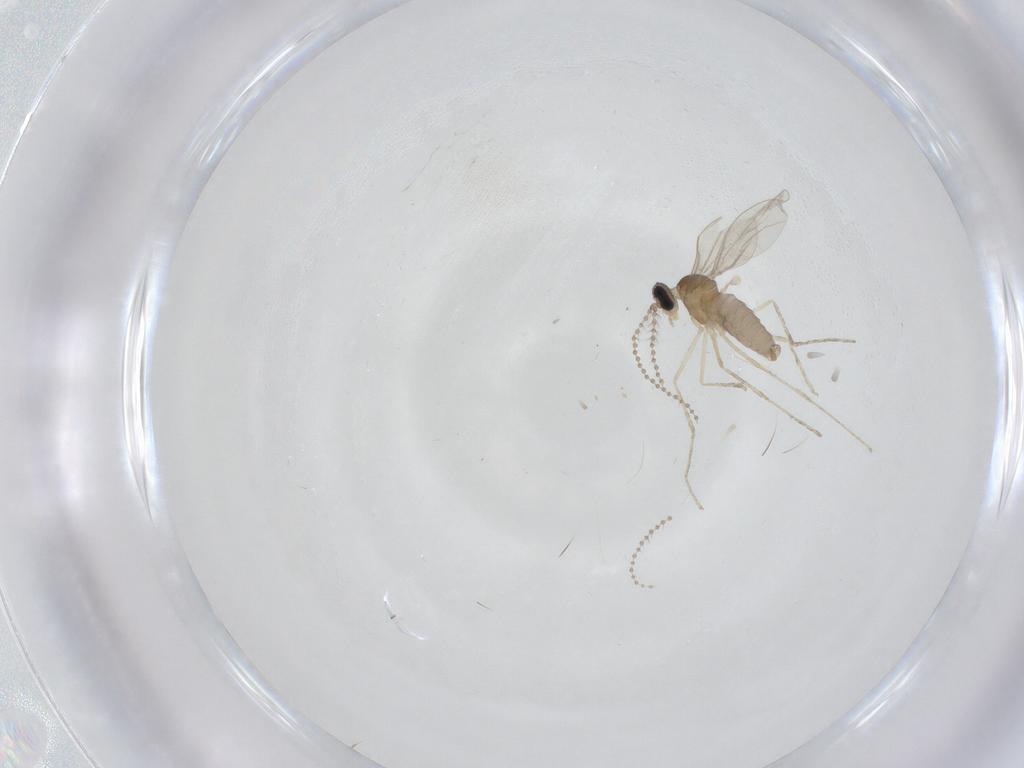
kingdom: Animalia
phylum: Arthropoda
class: Insecta
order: Diptera
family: Cecidomyiidae
